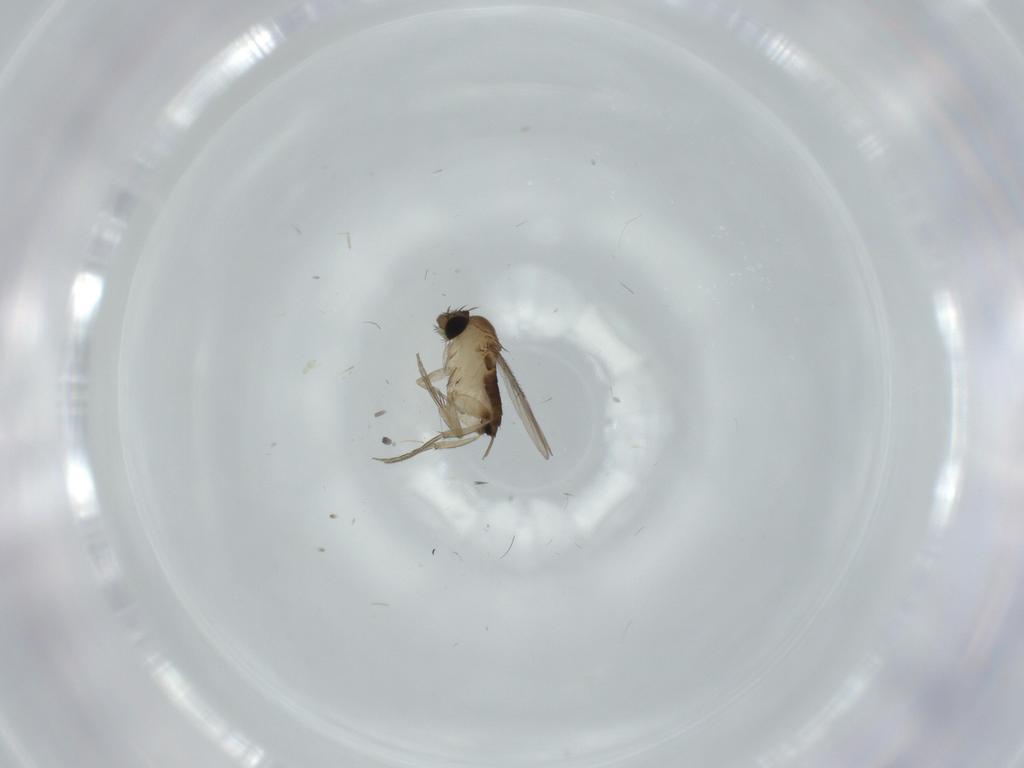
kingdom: Animalia
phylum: Arthropoda
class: Insecta
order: Diptera
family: Phoridae
